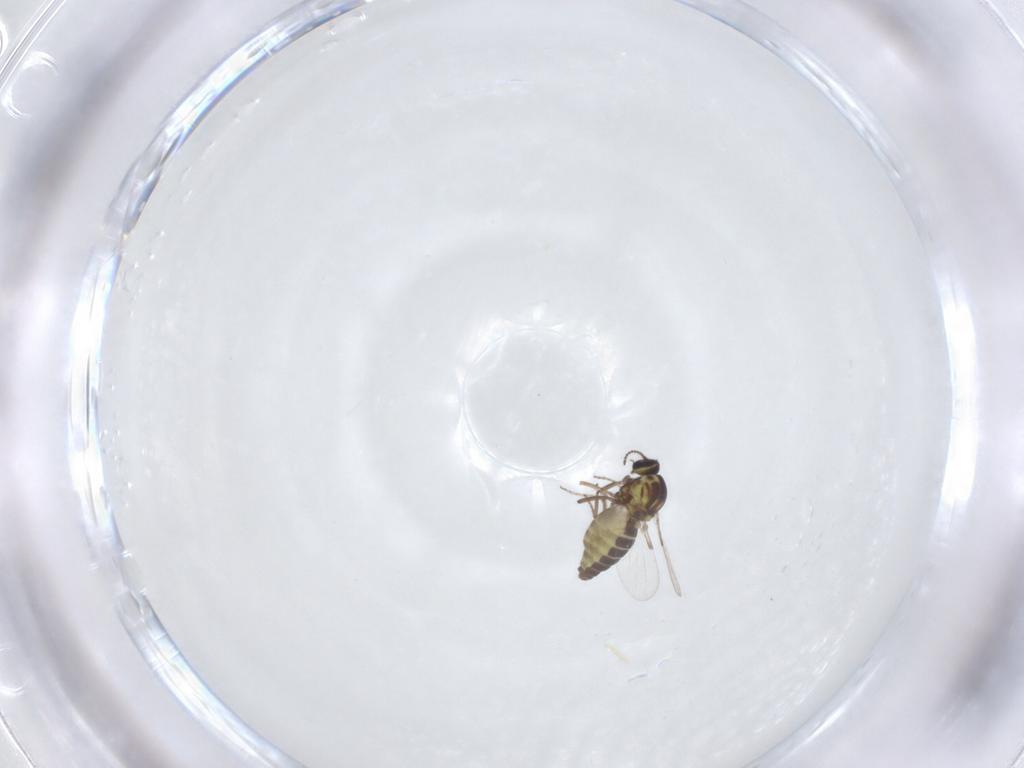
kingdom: Animalia
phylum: Arthropoda
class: Insecta
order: Diptera
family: Ceratopogonidae
